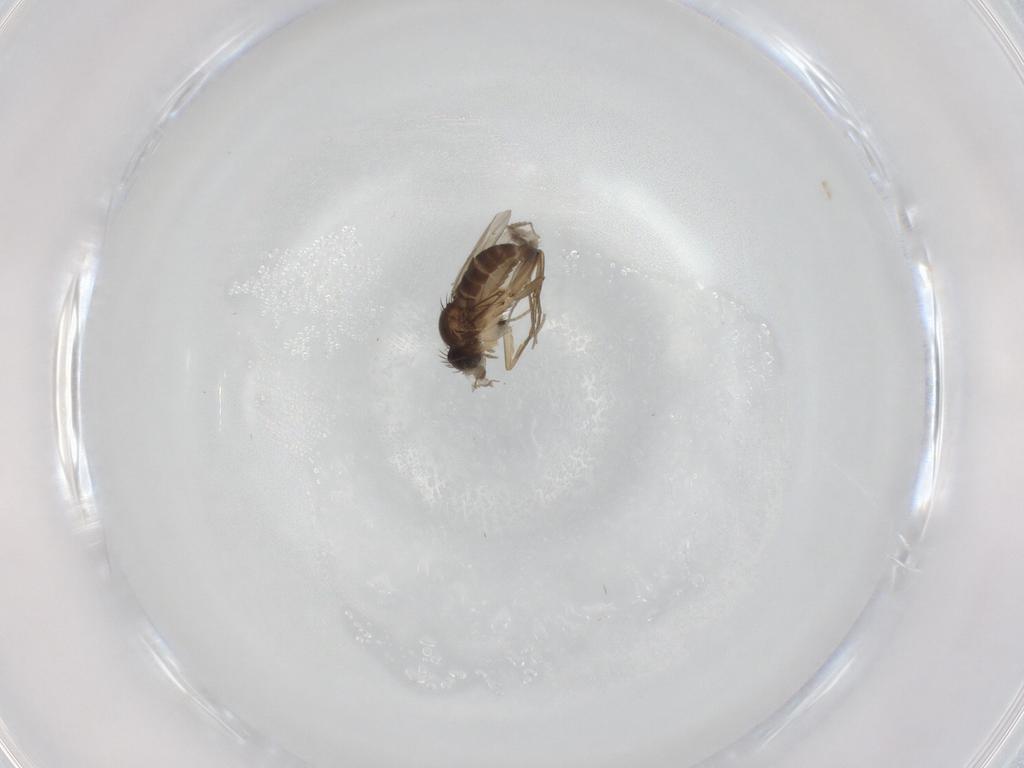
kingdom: Animalia
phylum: Arthropoda
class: Insecta
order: Diptera
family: Phoridae
